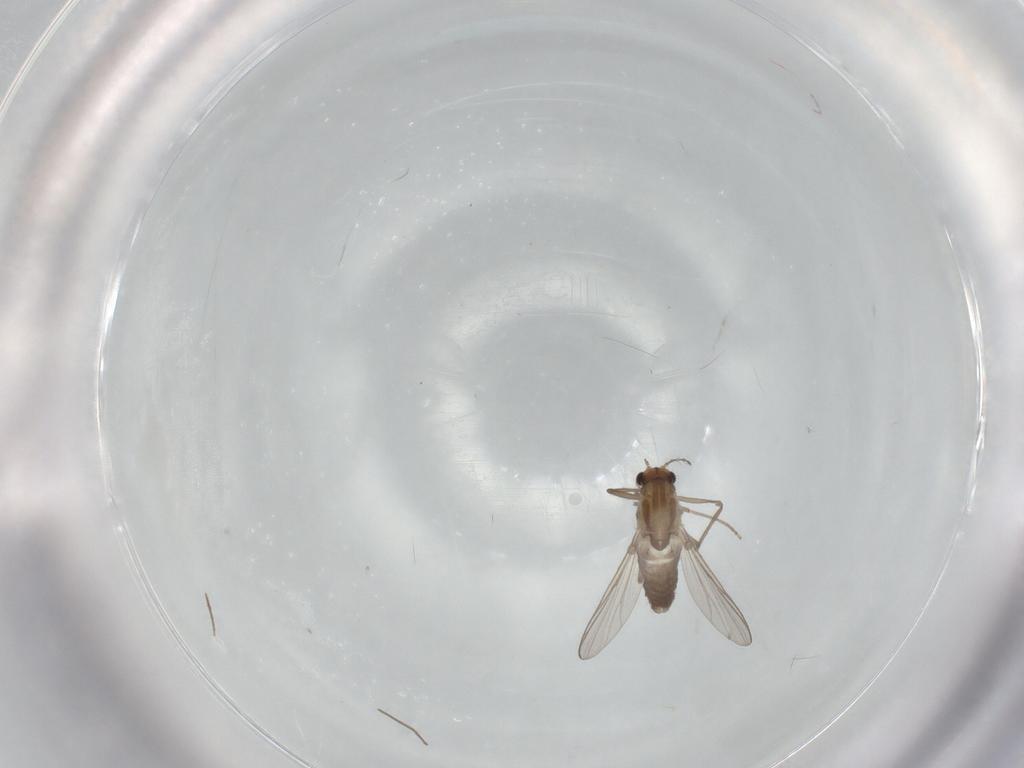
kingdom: Animalia
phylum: Arthropoda
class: Insecta
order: Diptera
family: Chironomidae
